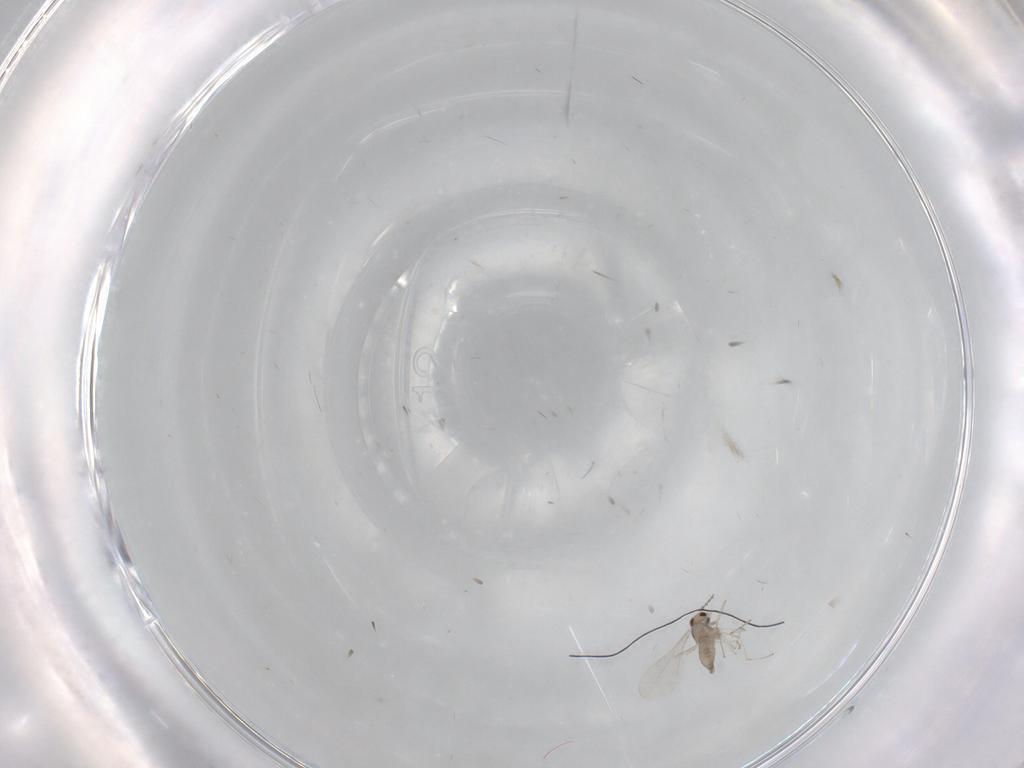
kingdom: Animalia
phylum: Arthropoda
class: Insecta
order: Diptera
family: Cecidomyiidae
